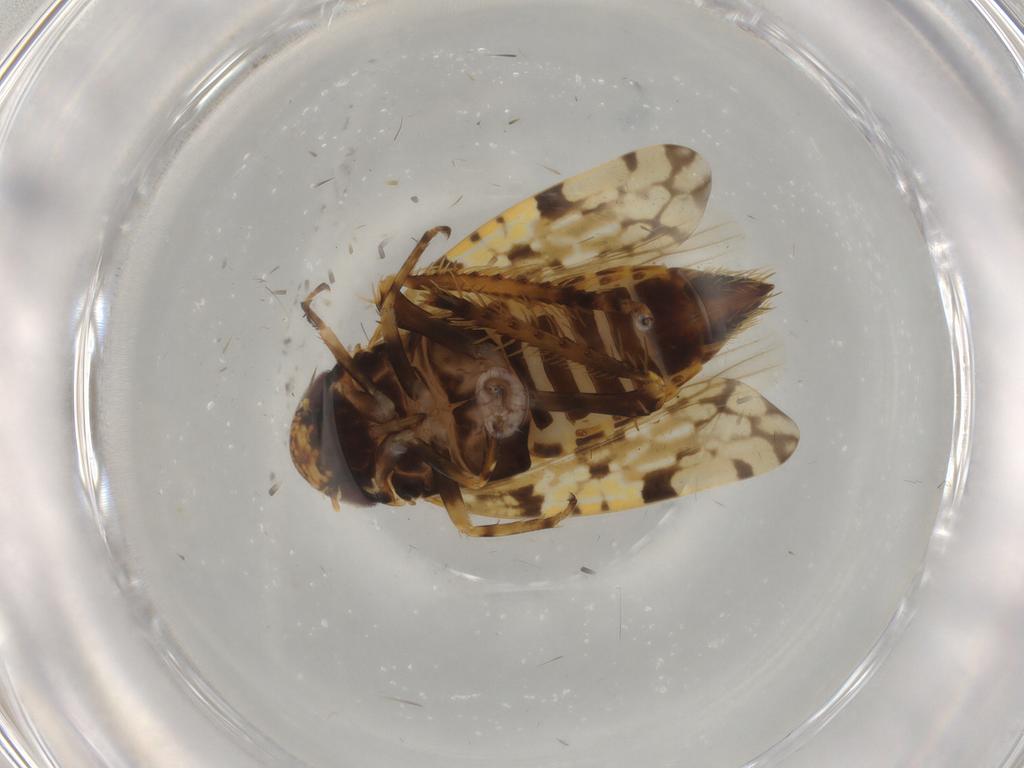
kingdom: Animalia
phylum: Arthropoda
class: Insecta
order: Hemiptera
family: Cicadellidae
